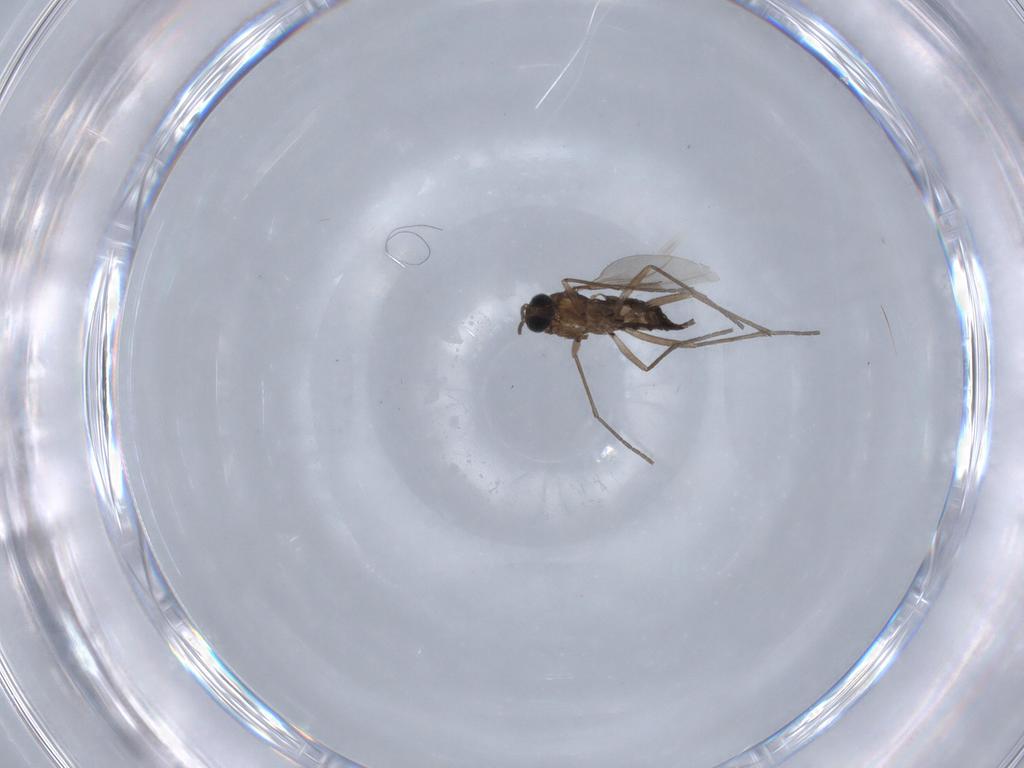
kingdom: Animalia
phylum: Arthropoda
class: Insecta
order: Diptera
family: Sciaridae
